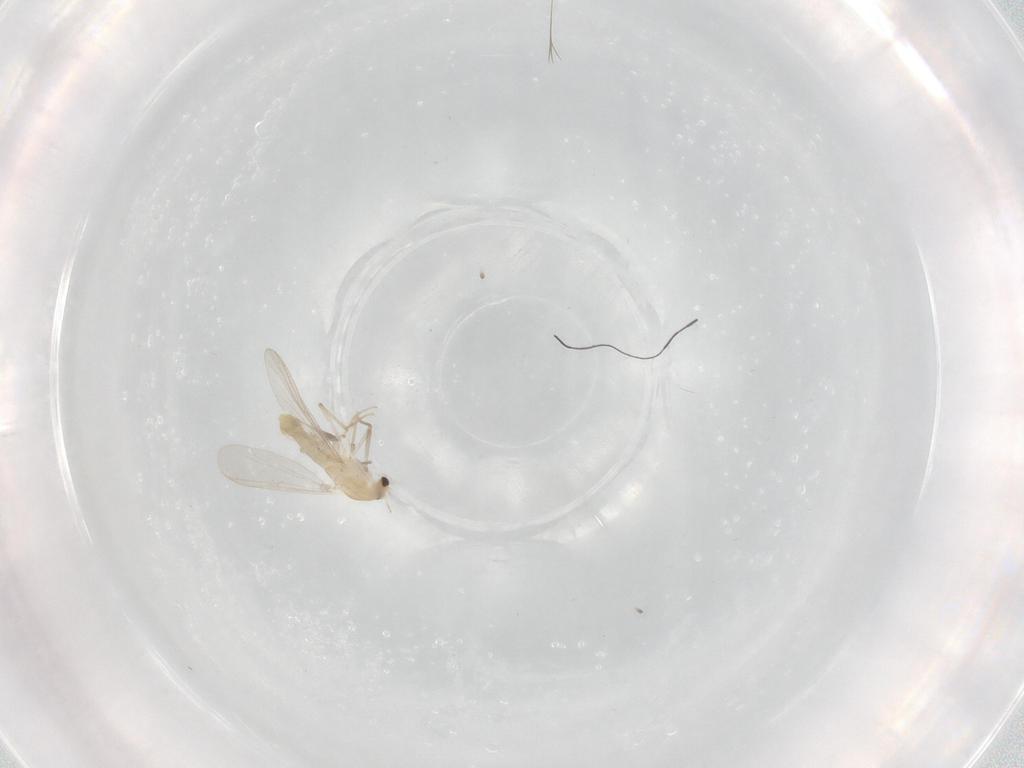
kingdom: Animalia
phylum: Arthropoda
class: Insecta
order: Diptera
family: Chironomidae
